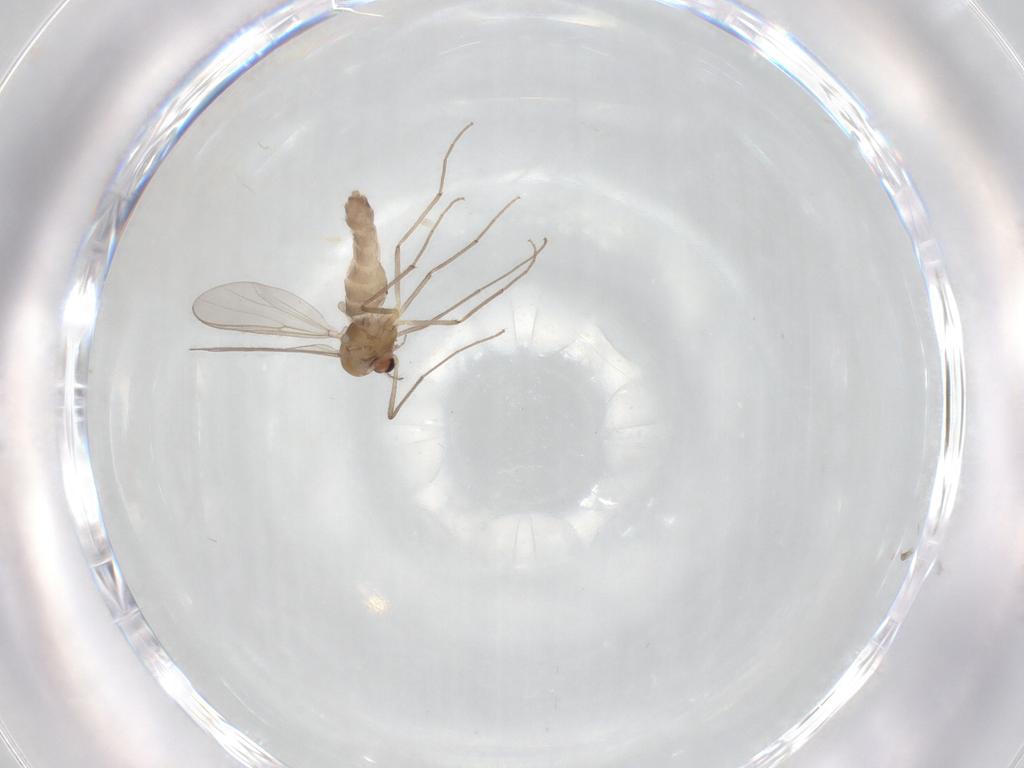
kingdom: Animalia
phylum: Arthropoda
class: Insecta
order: Diptera
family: Chironomidae
